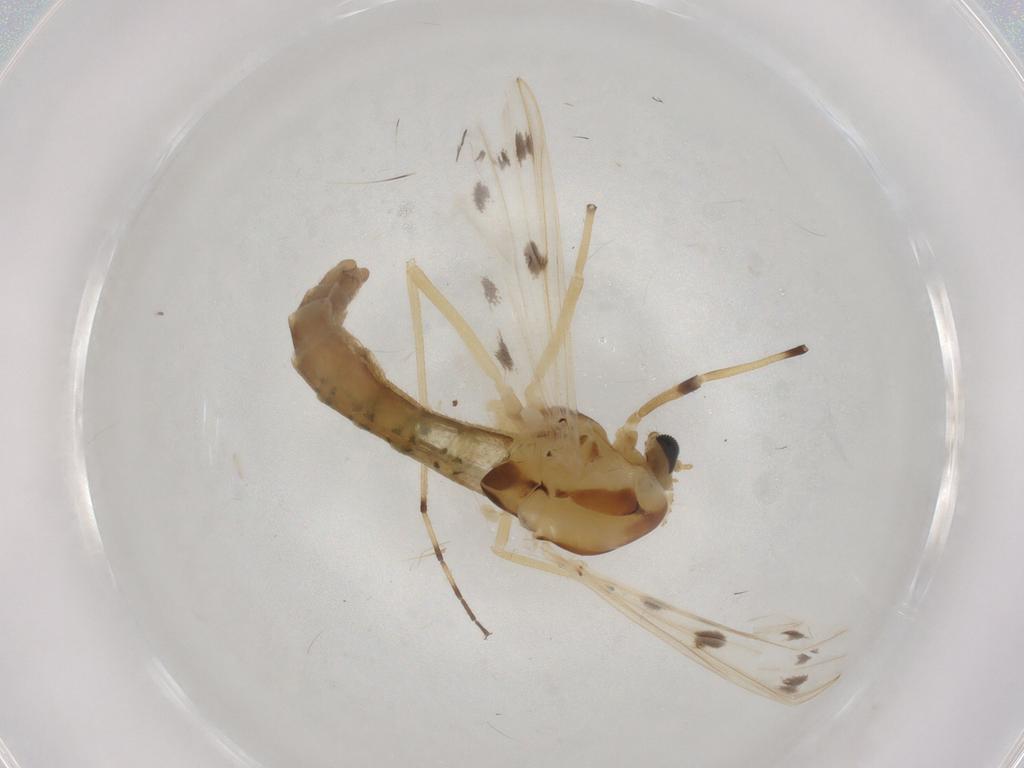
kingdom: Animalia
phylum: Arthropoda
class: Insecta
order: Diptera
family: Chironomidae
